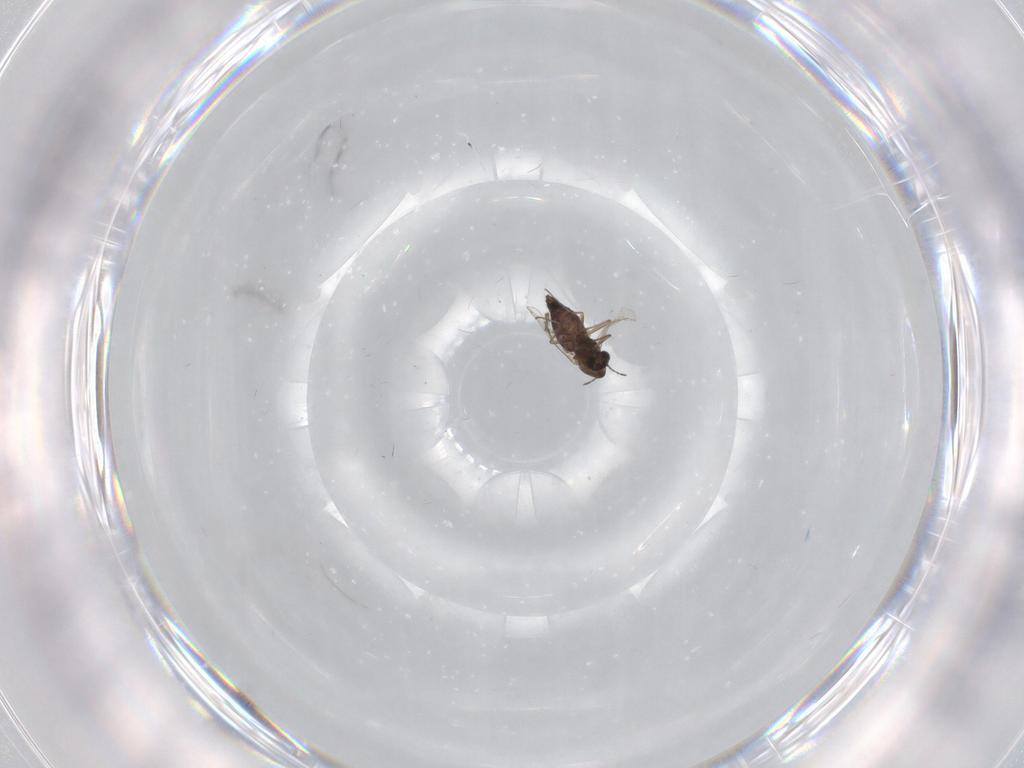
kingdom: Animalia
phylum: Arthropoda
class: Insecta
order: Diptera
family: Chironomidae
